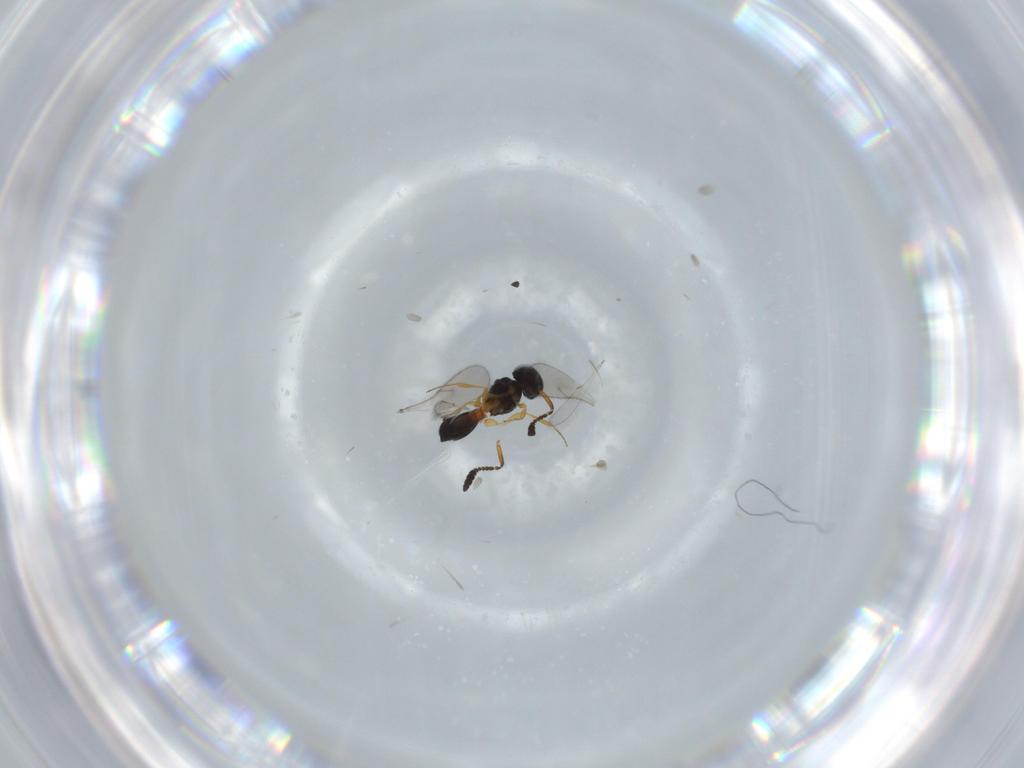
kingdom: Animalia
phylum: Arthropoda
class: Insecta
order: Hymenoptera
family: Scelionidae
